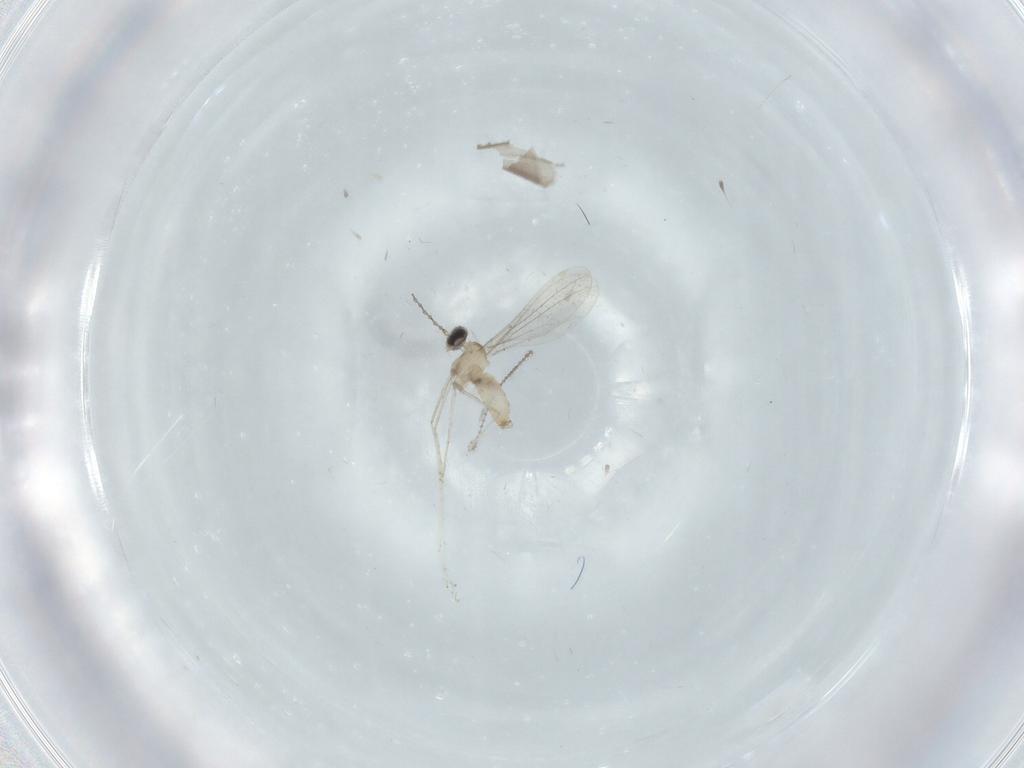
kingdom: Animalia
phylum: Arthropoda
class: Insecta
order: Diptera
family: Cecidomyiidae
